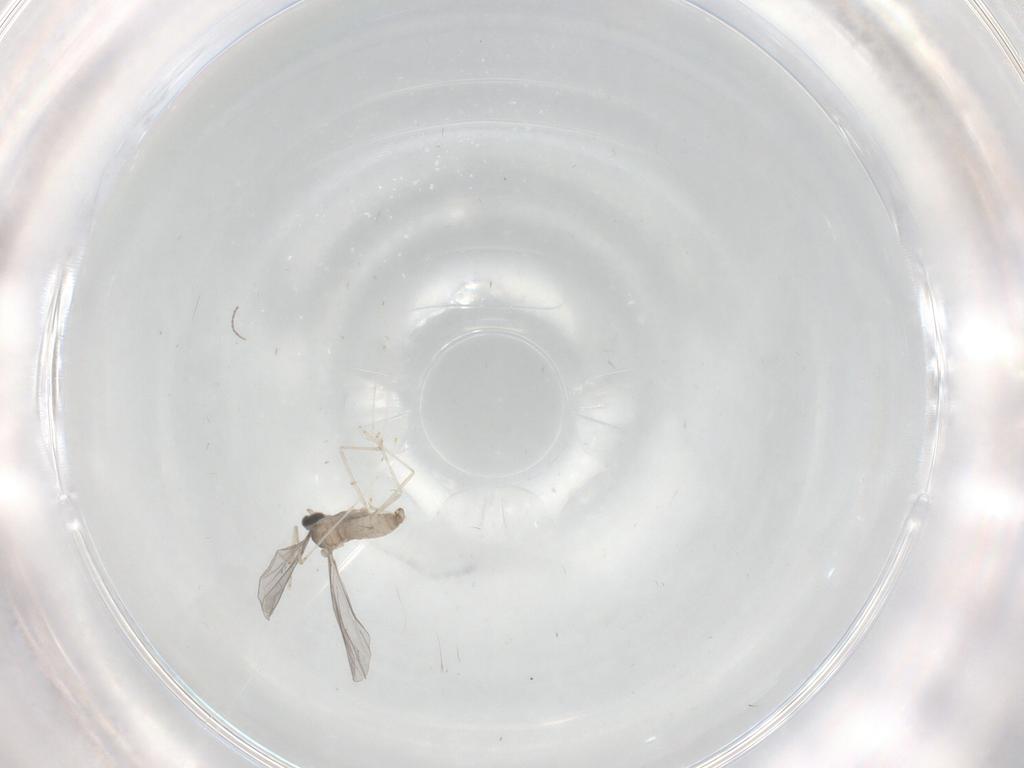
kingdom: Animalia
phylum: Arthropoda
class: Insecta
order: Diptera
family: Cecidomyiidae
